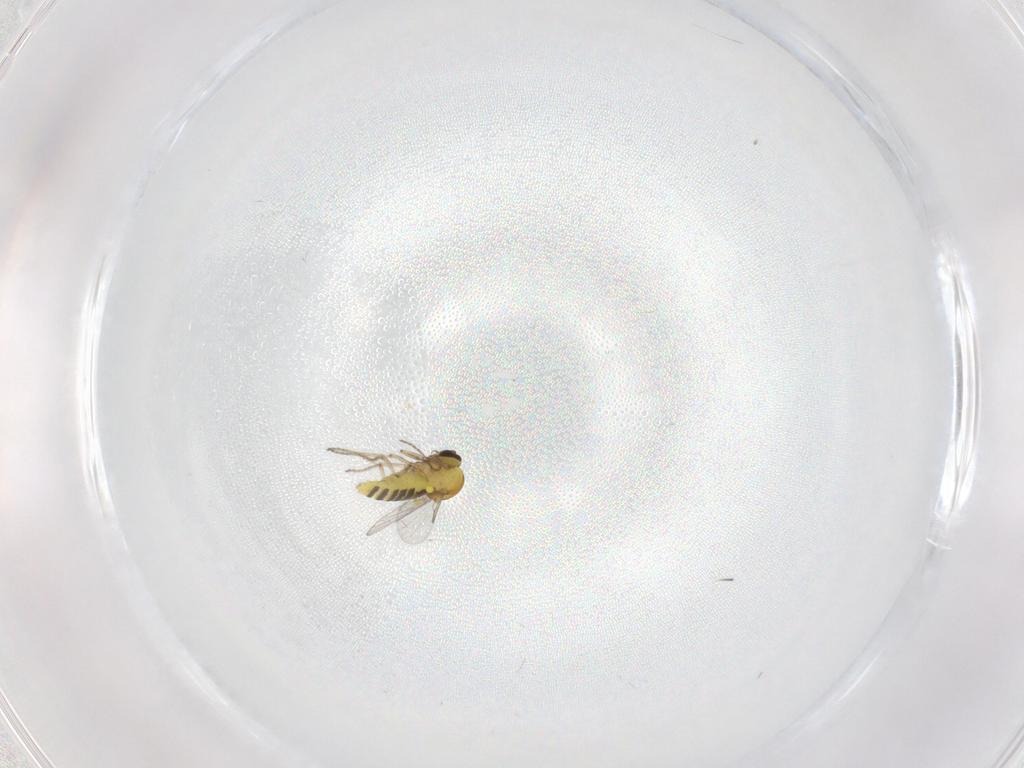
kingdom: Animalia
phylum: Arthropoda
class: Insecta
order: Diptera
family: Ceratopogonidae
